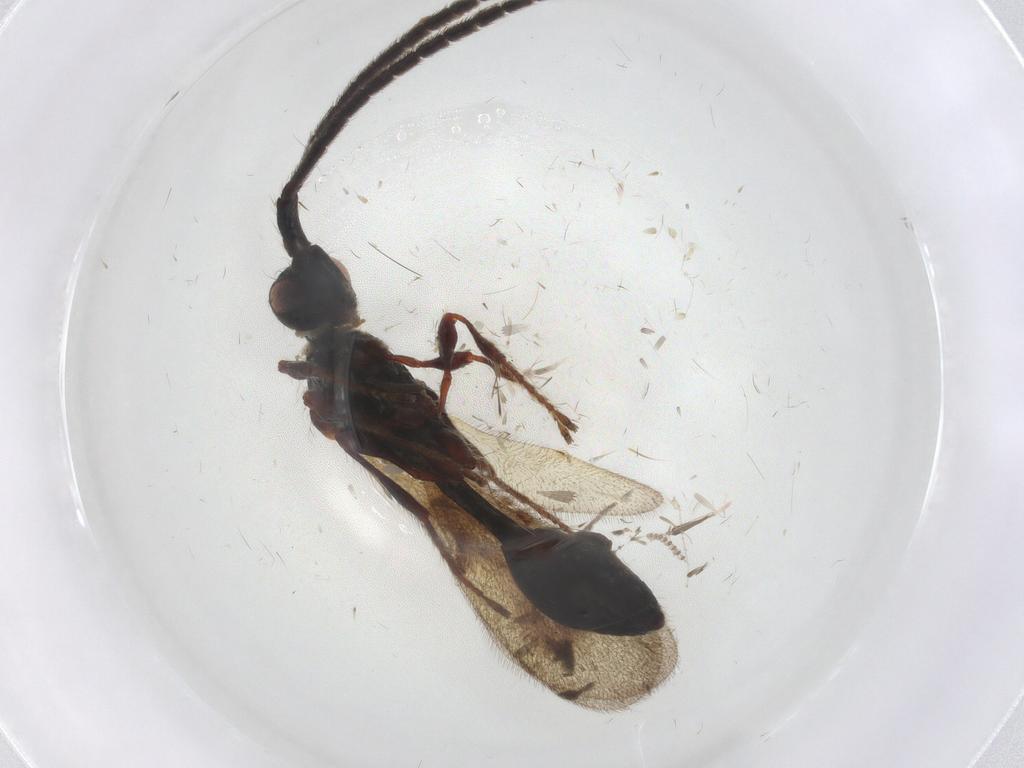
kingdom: Animalia
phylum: Arthropoda
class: Insecta
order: Hymenoptera
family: Diapriidae
